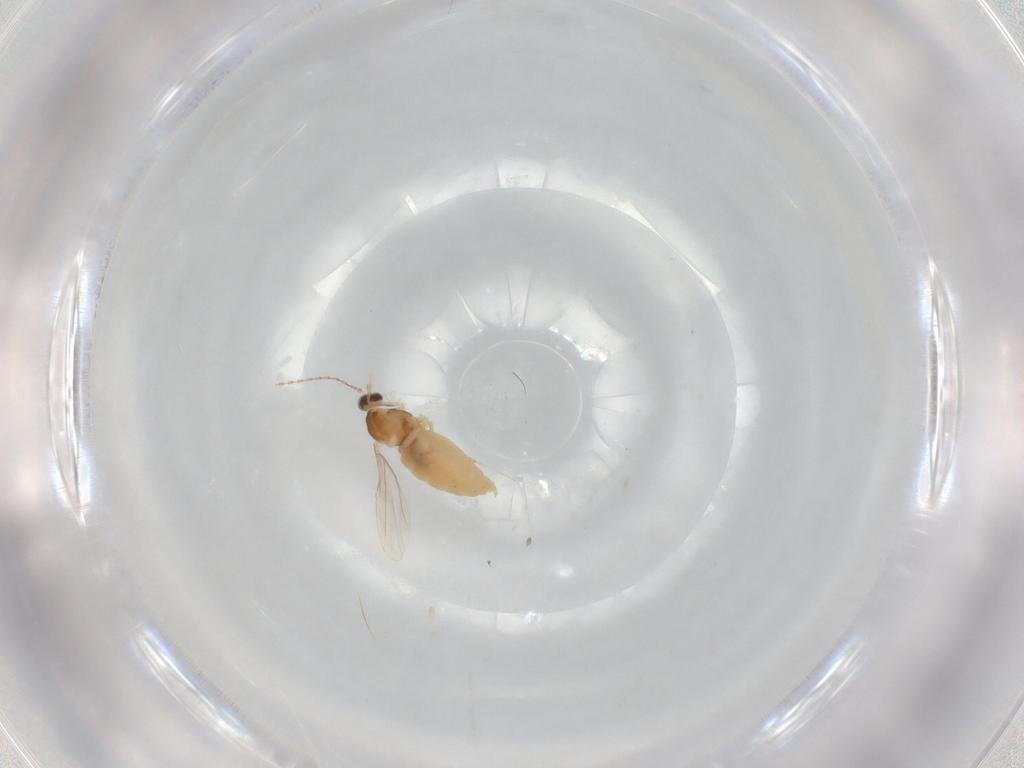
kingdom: Animalia
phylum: Arthropoda
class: Insecta
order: Diptera
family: Cecidomyiidae
